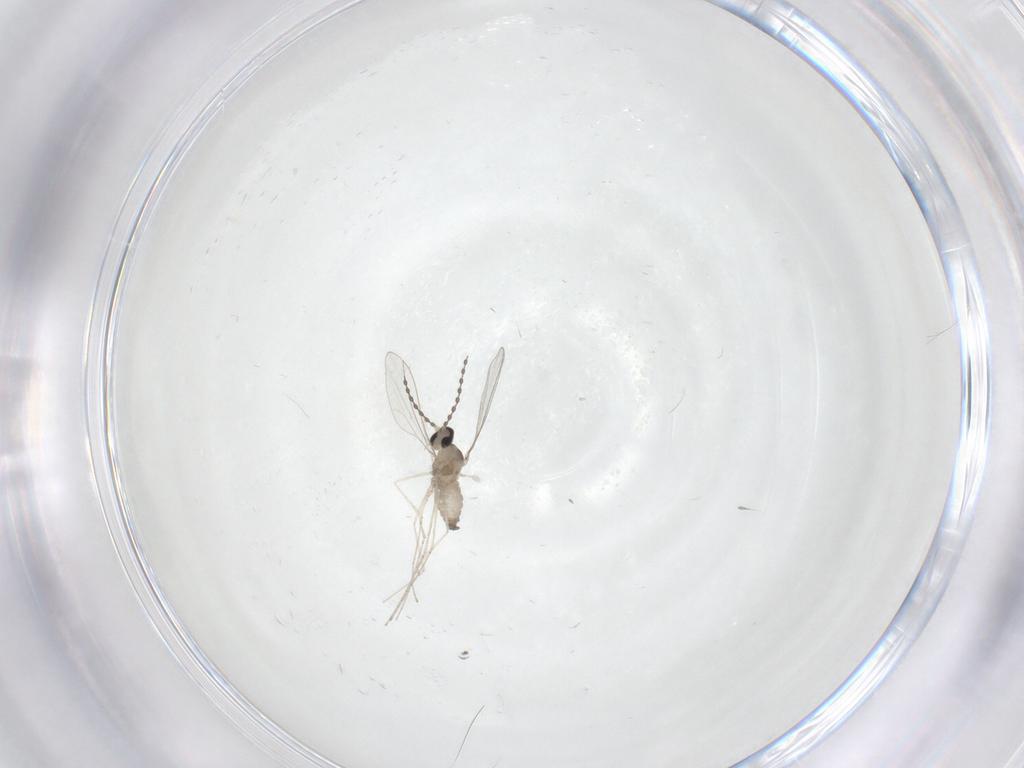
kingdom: Animalia
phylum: Arthropoda
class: Insecta
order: Diptera
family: Cecidomyiidae
